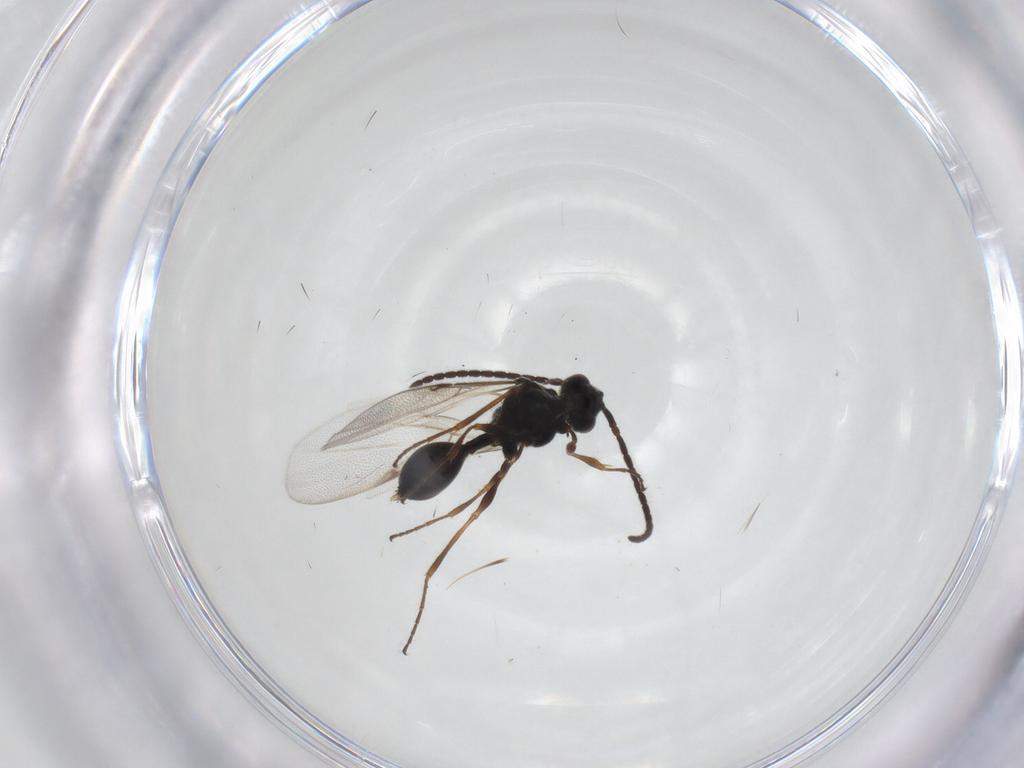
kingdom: Animalia
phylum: Arthropoda
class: Insecta
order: Hymenoptera
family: Diapriidae
